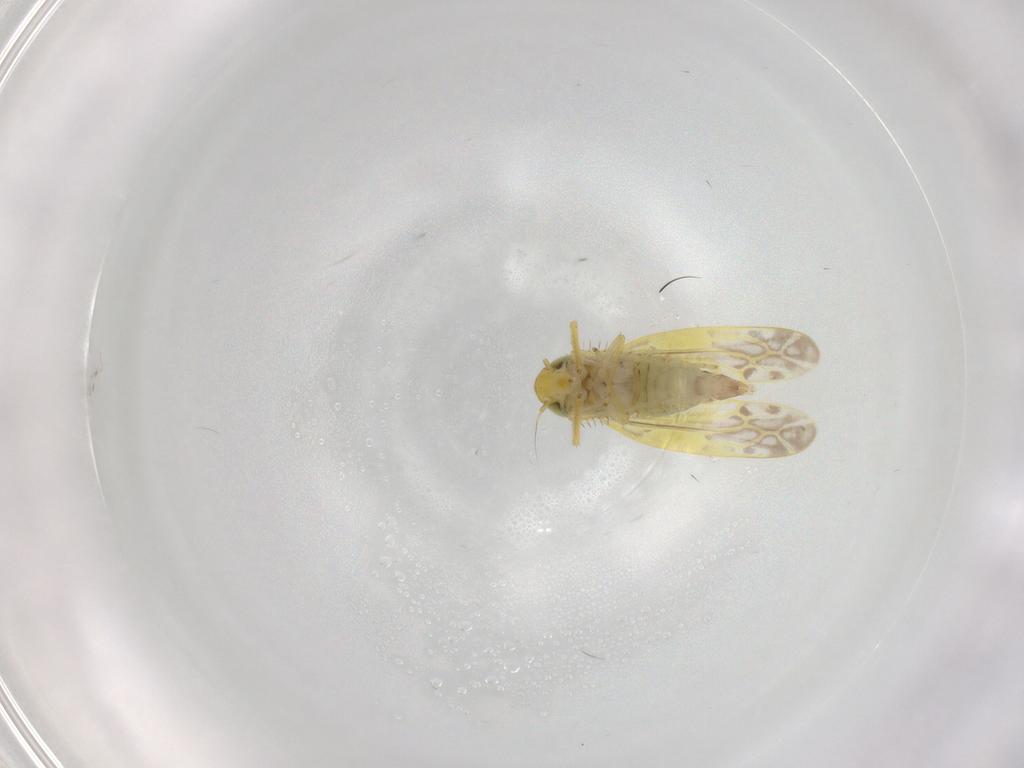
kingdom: Animalia
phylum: Arthropoda
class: Insecta
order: Hemiptera
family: Cicadellidae
